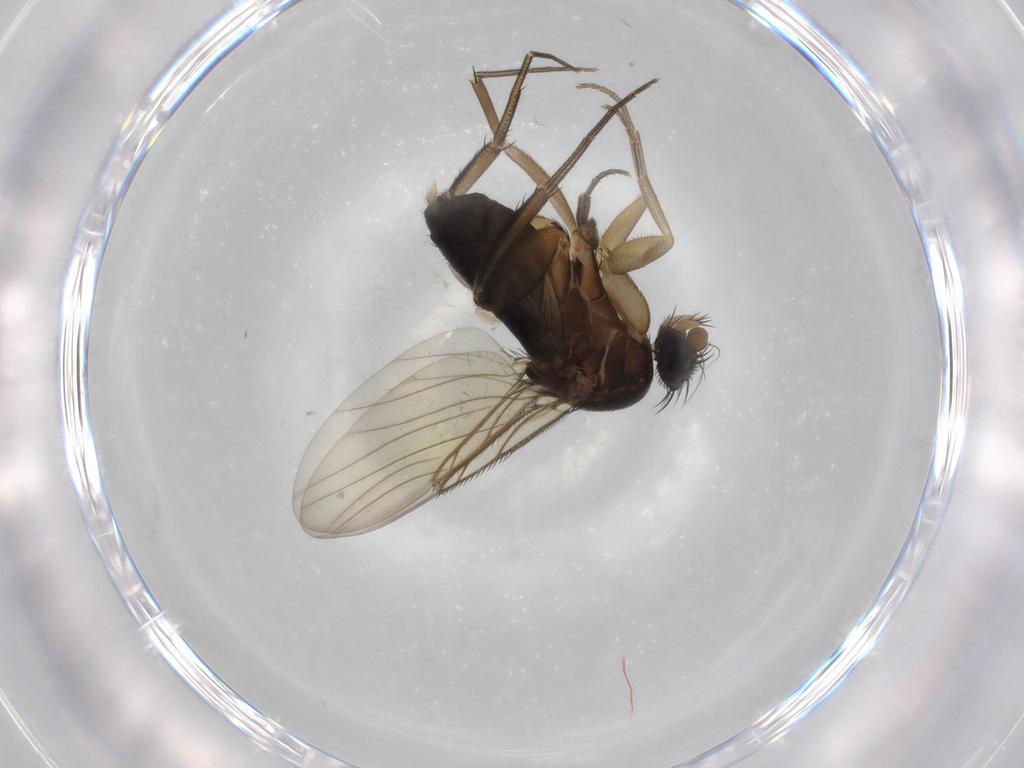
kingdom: Animalia
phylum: Arthropoda
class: Insecta
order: Diptera
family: Phoridae
